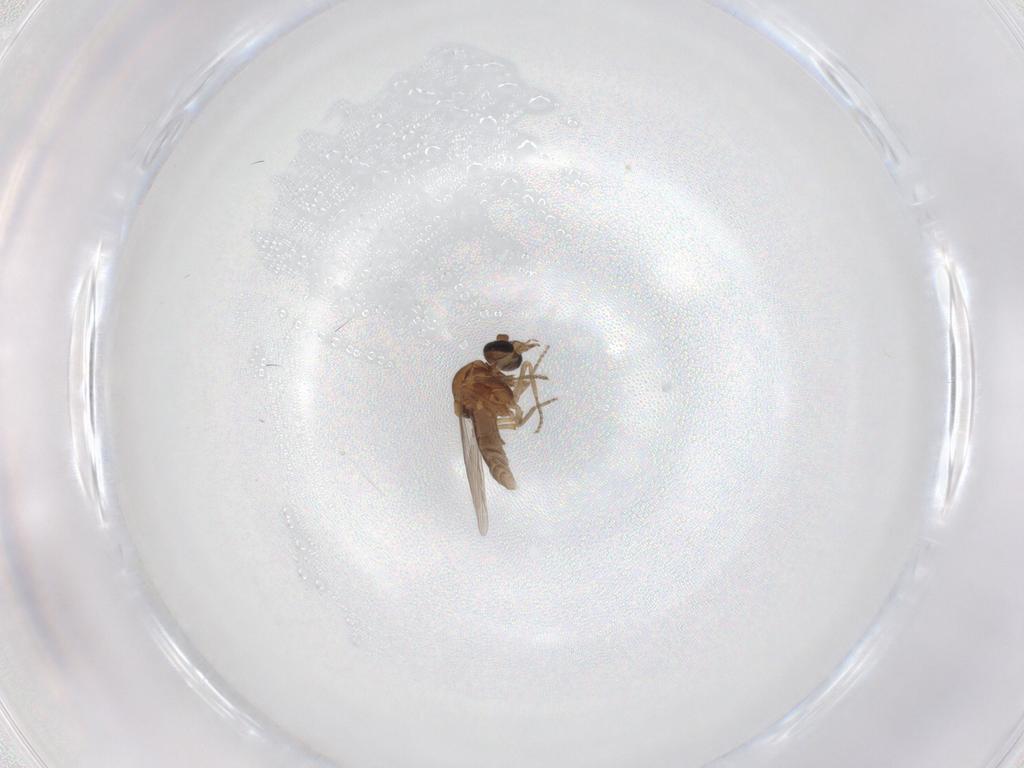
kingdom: Animalia
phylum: Arthropoda
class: Insecta
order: Diptera
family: Ceratopogonidae
